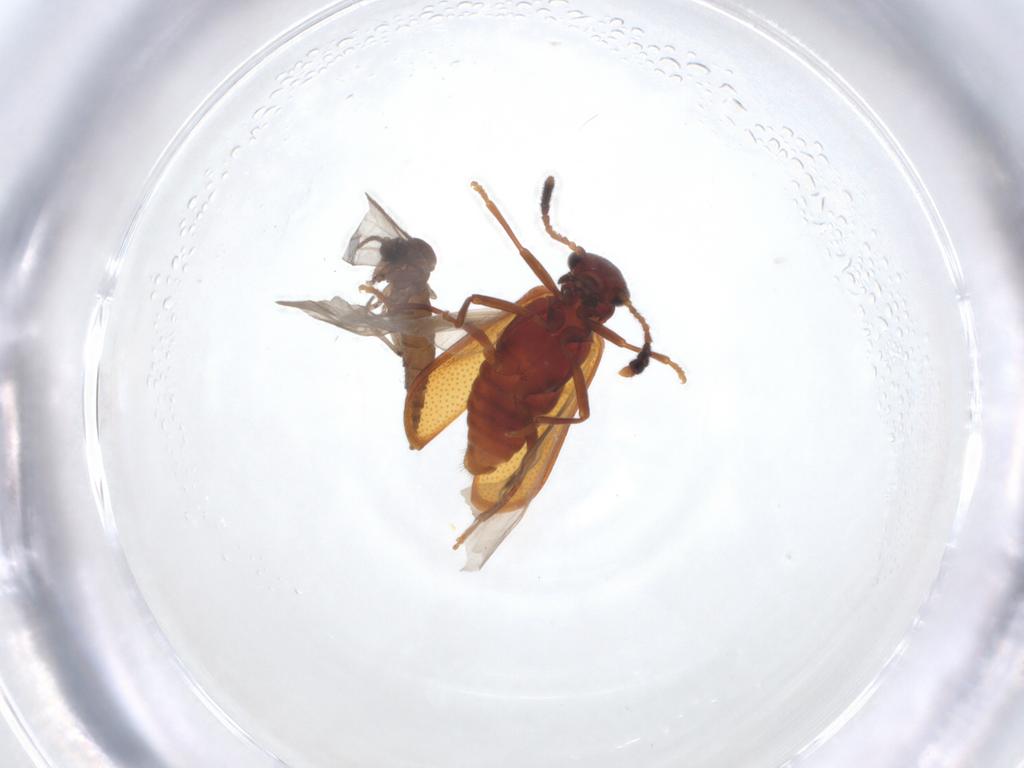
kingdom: Animalia
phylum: Arthropoda
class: Insecta
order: Diptera
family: Sciaridae
